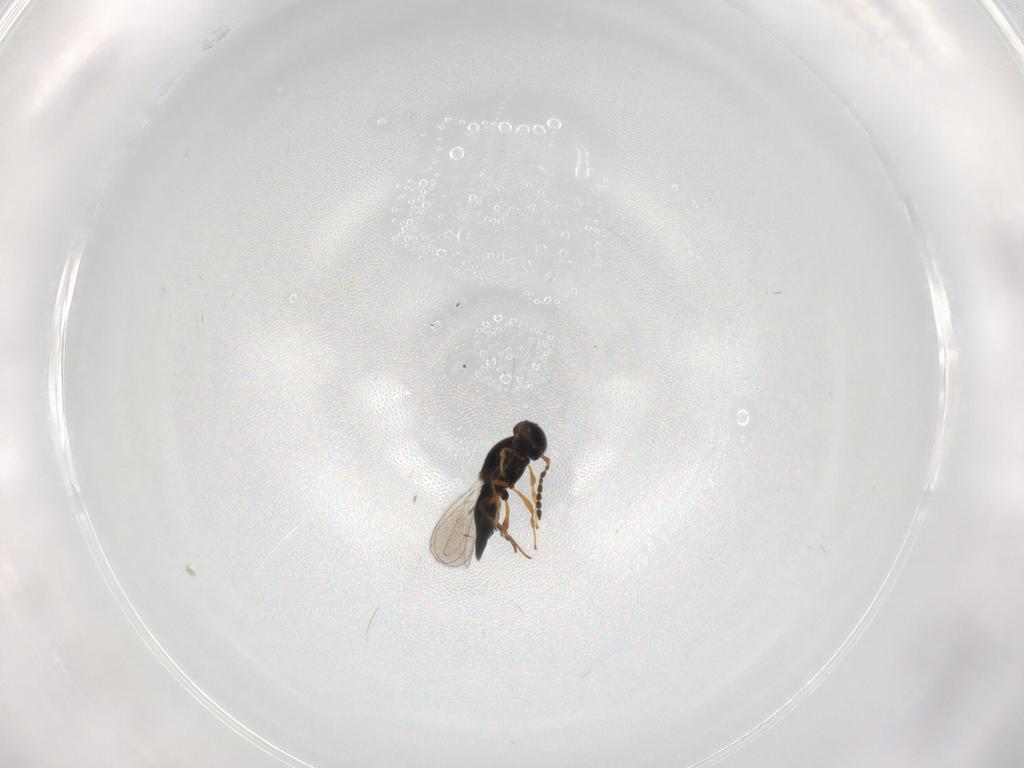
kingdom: Animalia
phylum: Arthropoda
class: Insecta
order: Hymenoptera
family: Platygastridae
